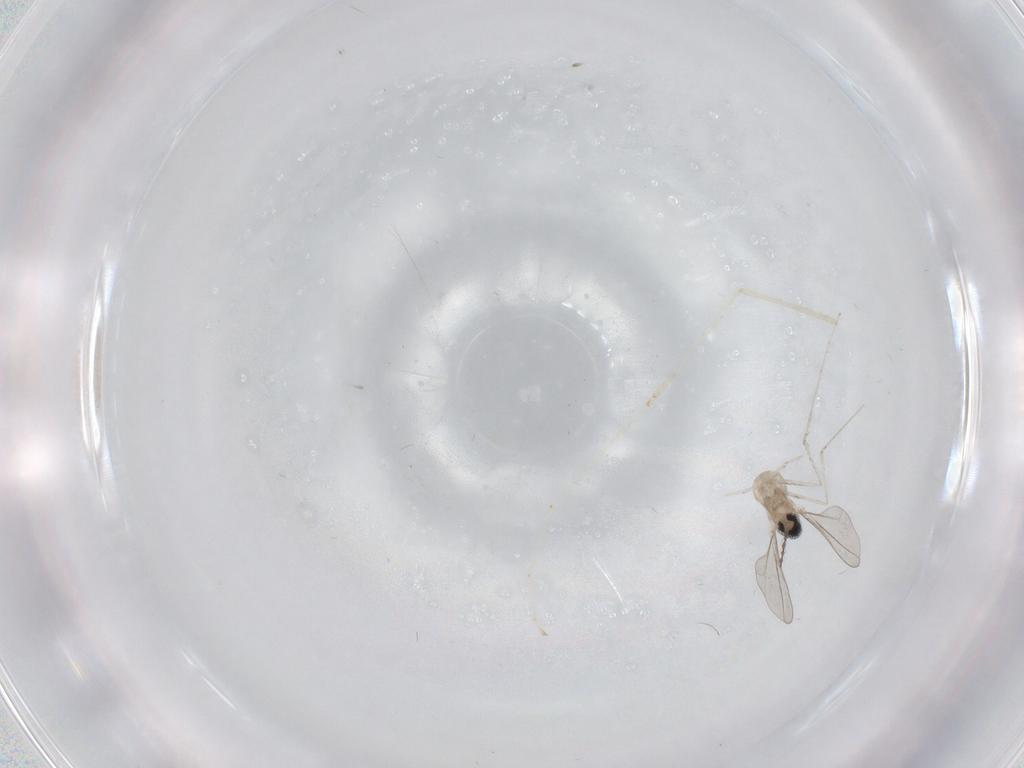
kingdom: Animalia
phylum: Arthropoda
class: Insecta
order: Diptera
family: Cecidomyiidae
